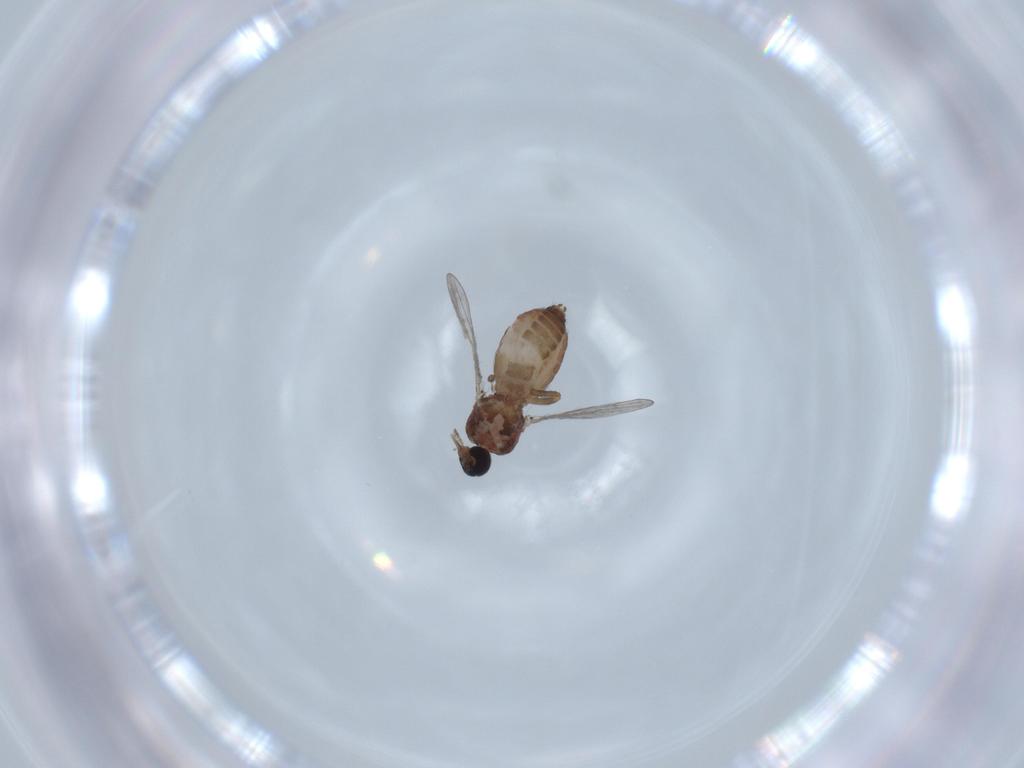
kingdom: Animalia
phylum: Arthropoda
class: Insecta
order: Diptera
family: Ceratopogonidae
